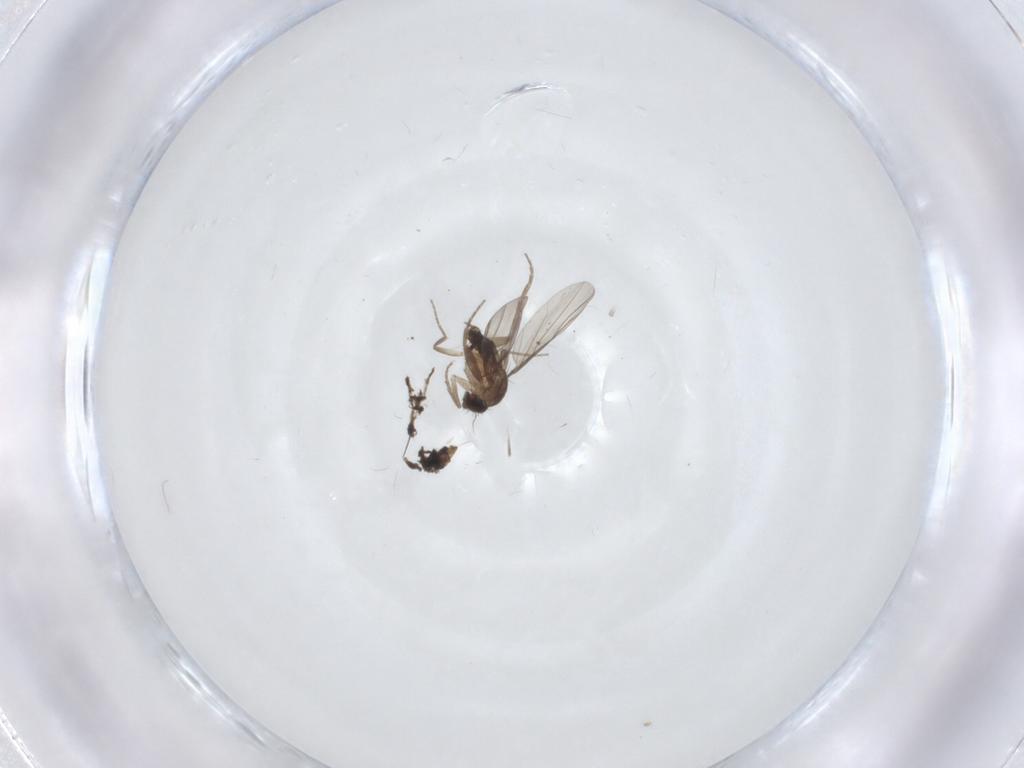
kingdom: Animalia
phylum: Arthropoda
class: Insecta
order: Diptera
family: Phoridae
